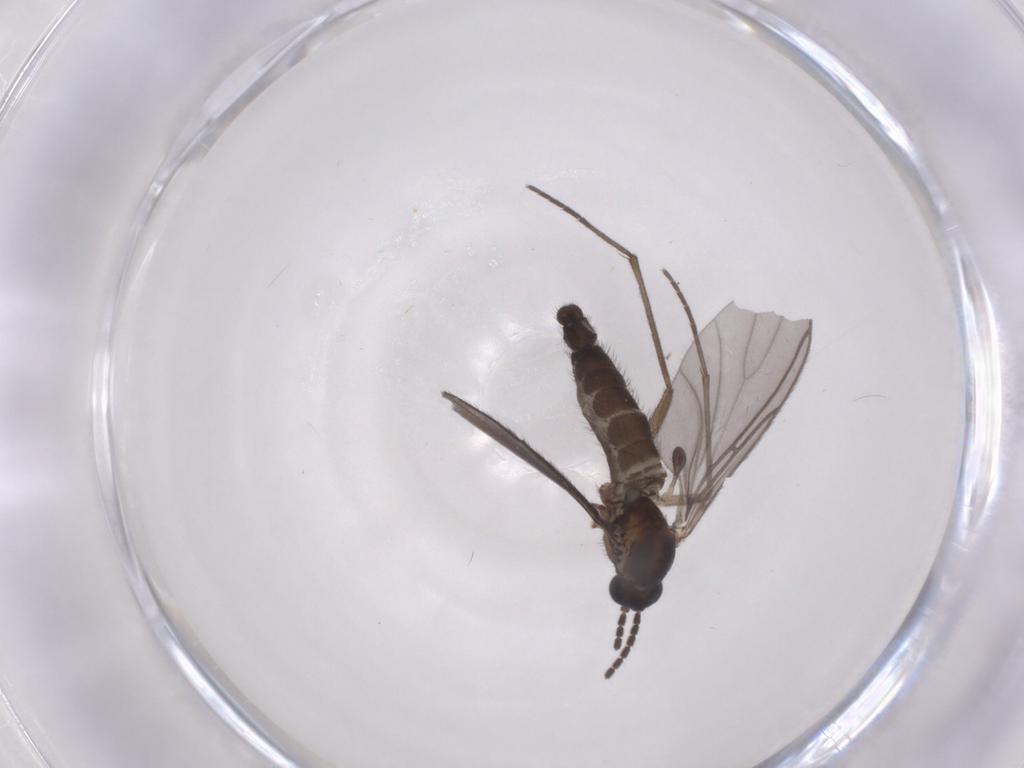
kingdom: Animalia
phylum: Arthropoda
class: Insecta
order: Diptera
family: Sciaridae
